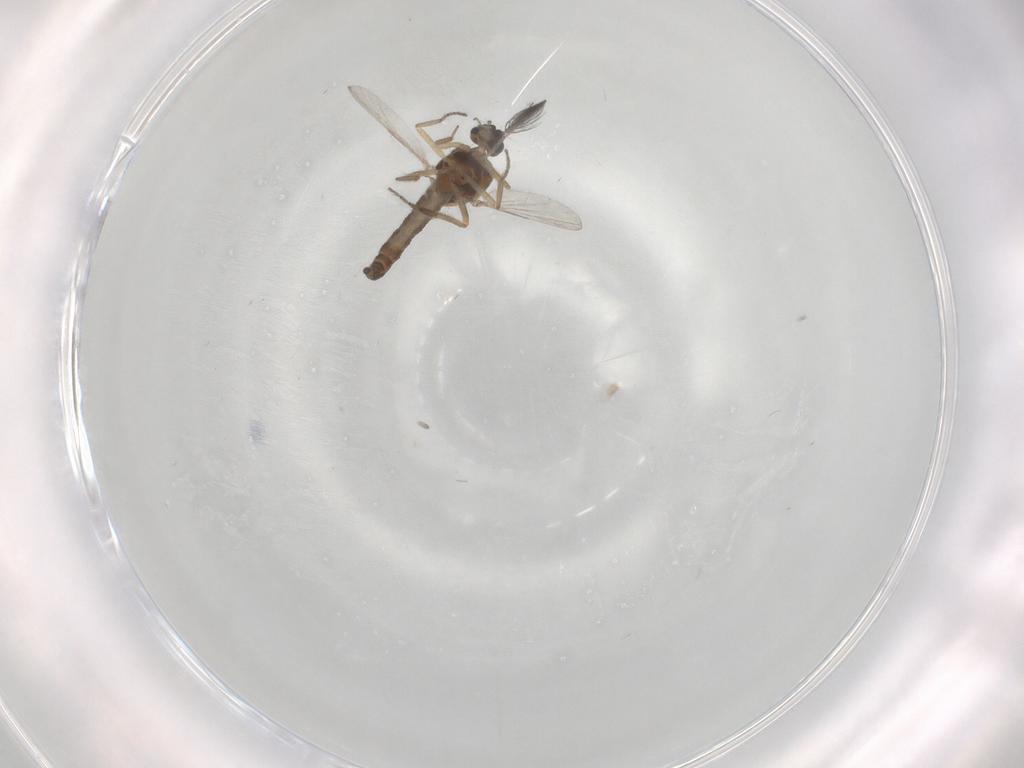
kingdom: Animalia
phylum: Arthropoda
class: Insecta
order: Diptera
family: Ceratopogonidae
